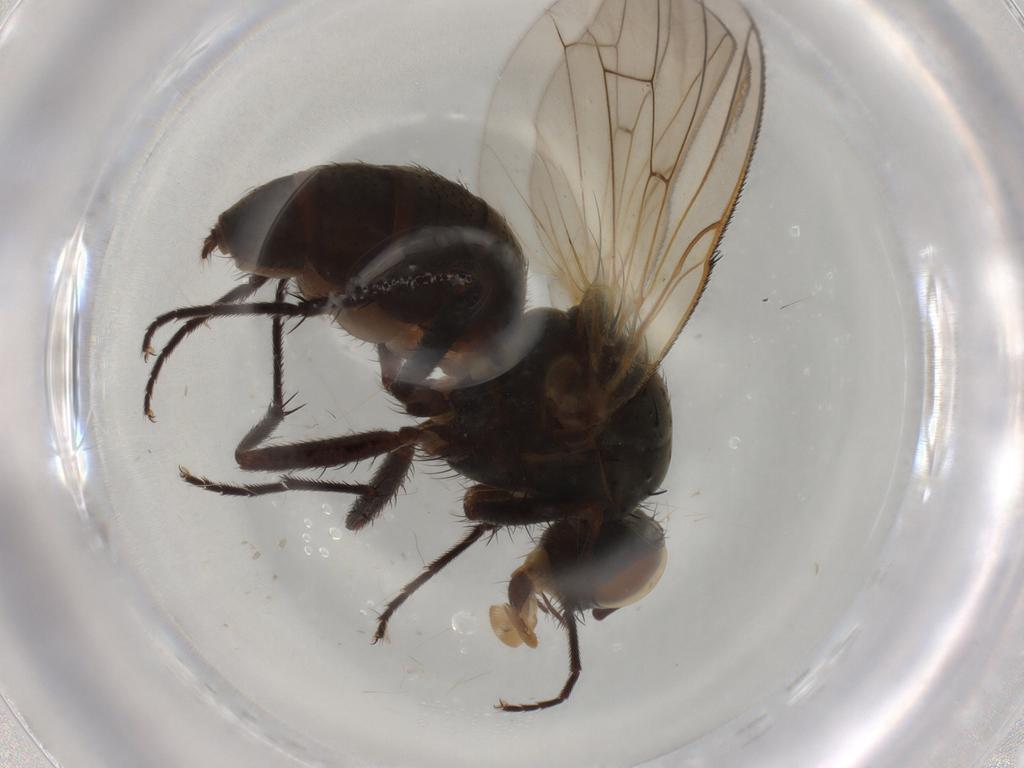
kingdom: Animalia
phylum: Arthropoda
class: Insecta
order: Diptera
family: Anthomyiidae
